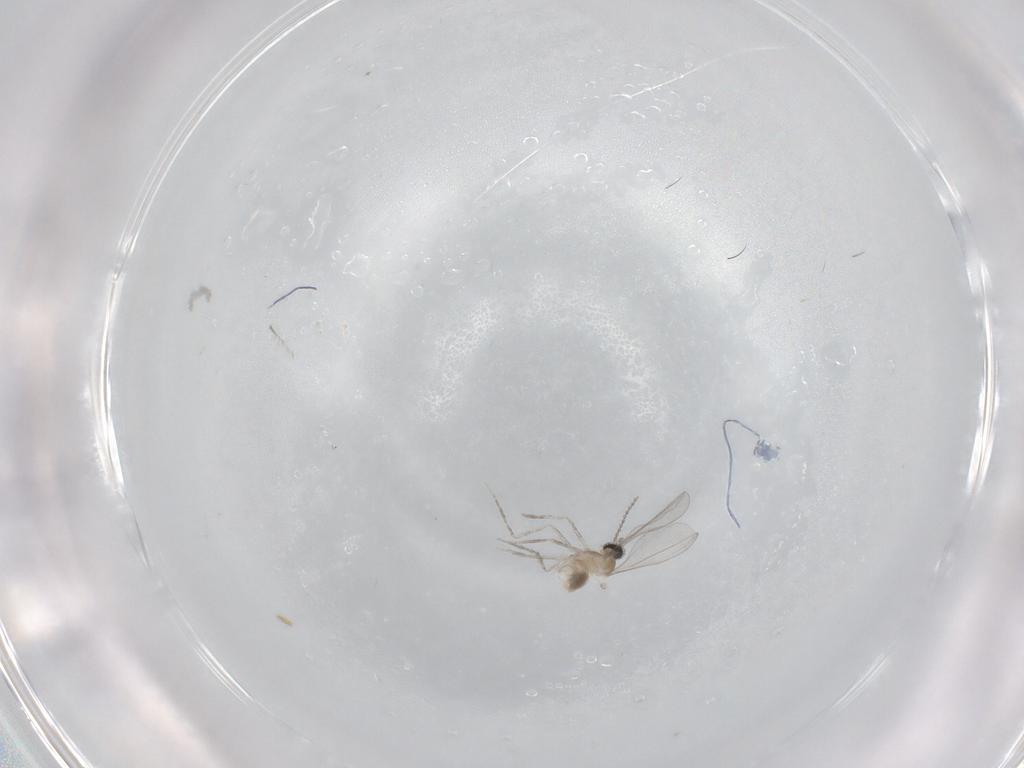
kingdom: Animalia
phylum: Arthropoda
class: Insecta
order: Diptera
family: Cecidomyiidae
